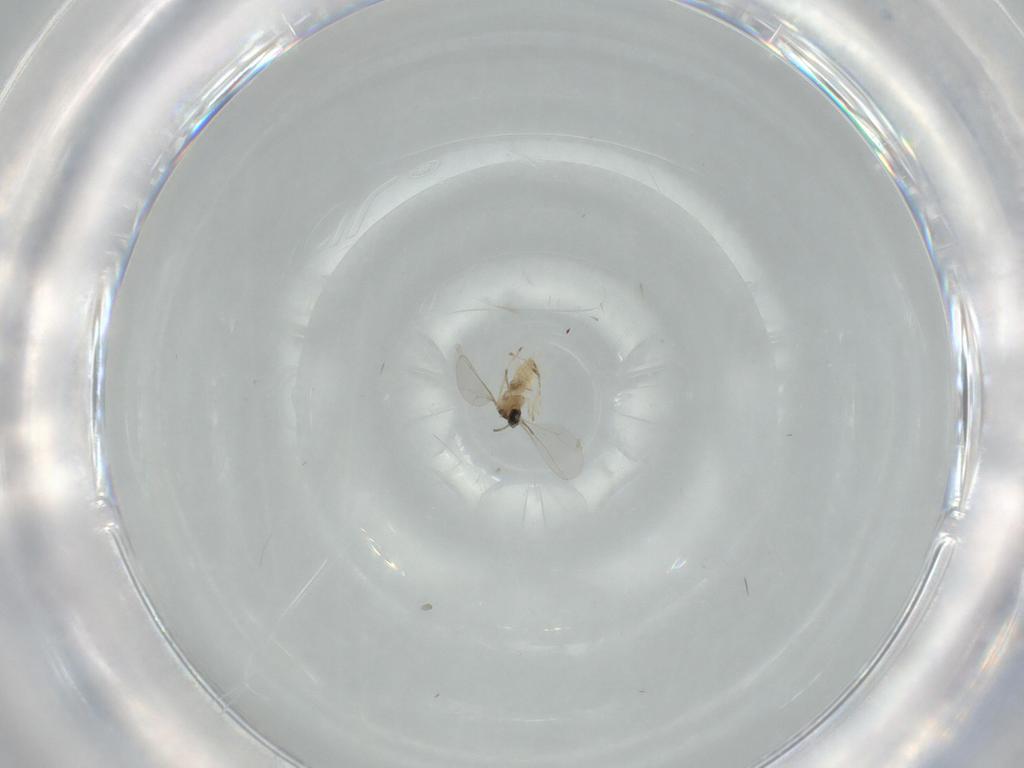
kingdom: Animalia
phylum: Arthropoda
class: Insecta
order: Diptera
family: Cecidomyiidae
